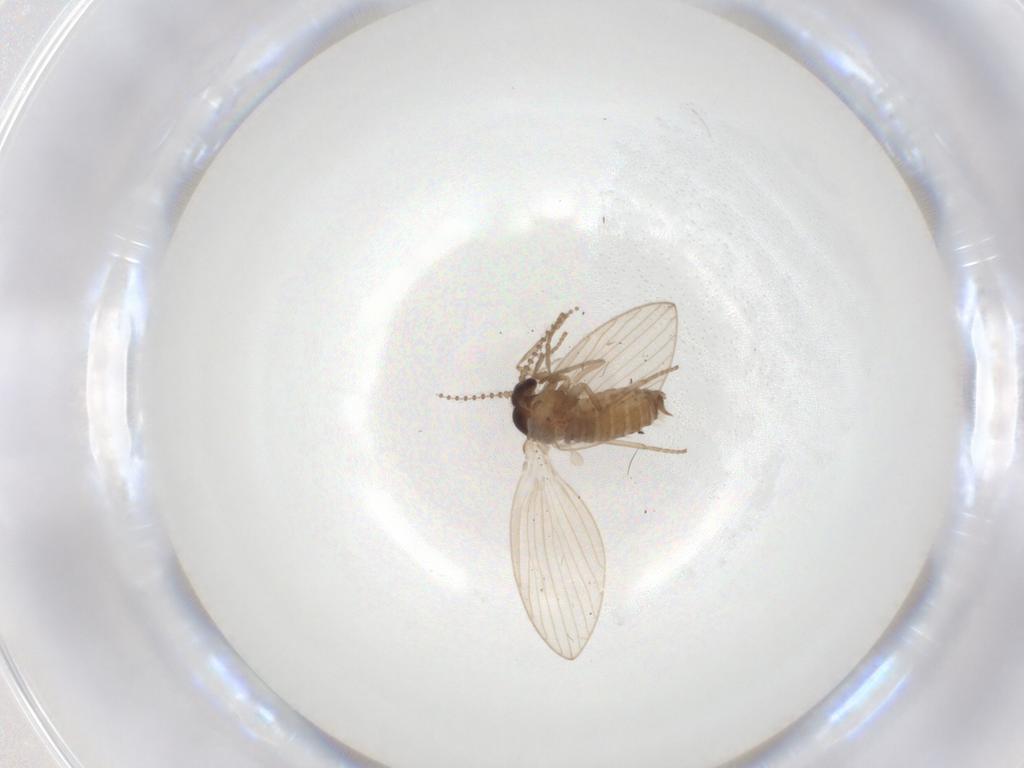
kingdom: Animalia
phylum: Arthropoda
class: Insecta
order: Diptera
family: Psychodidae
